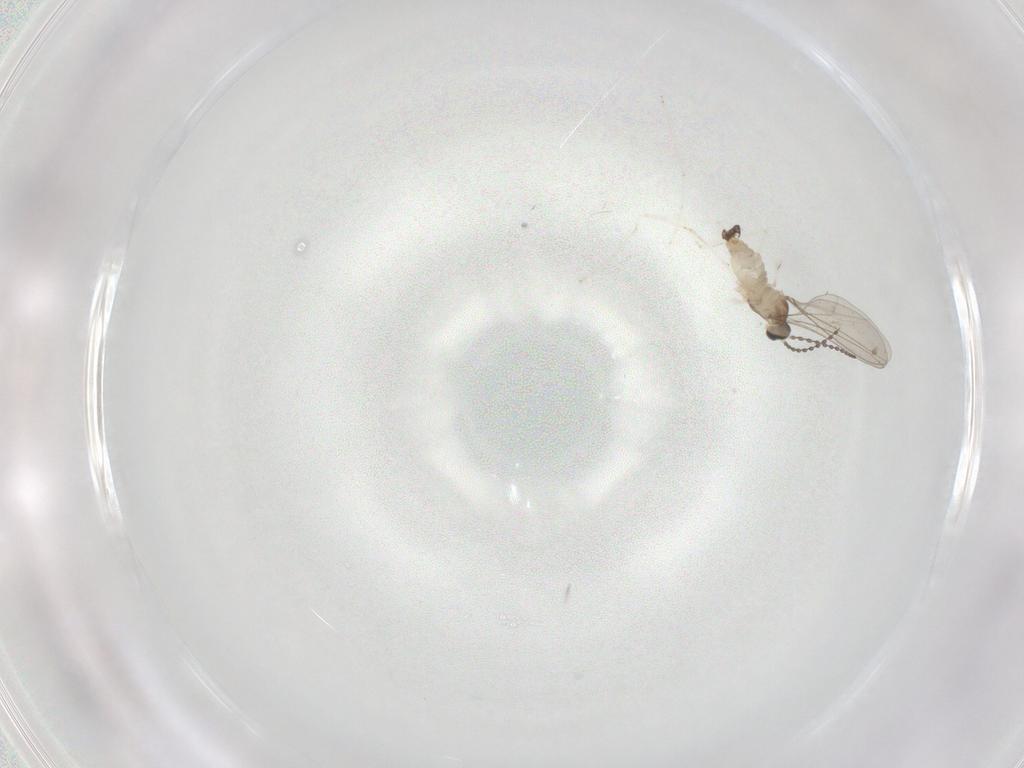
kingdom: Animalia
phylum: Arthropoda
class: Insecta
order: Diptera
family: Cecidomyiidae
